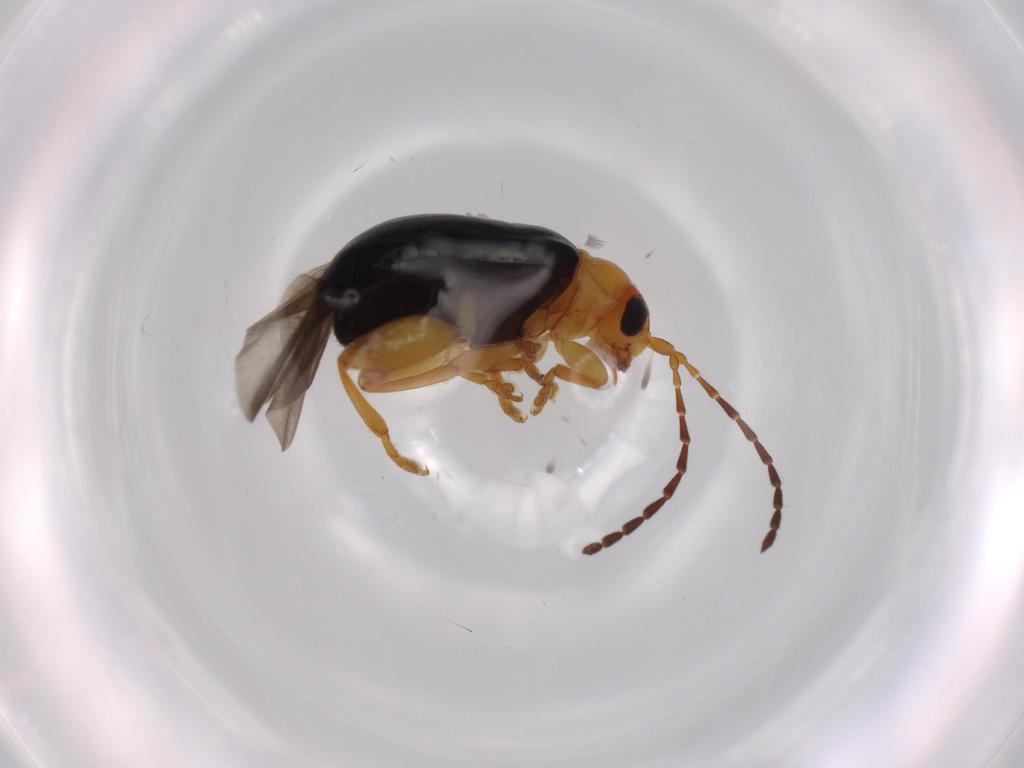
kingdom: Animalia
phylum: Arthropoda
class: Insecta
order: Coleoptera
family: Chrysomelidae
